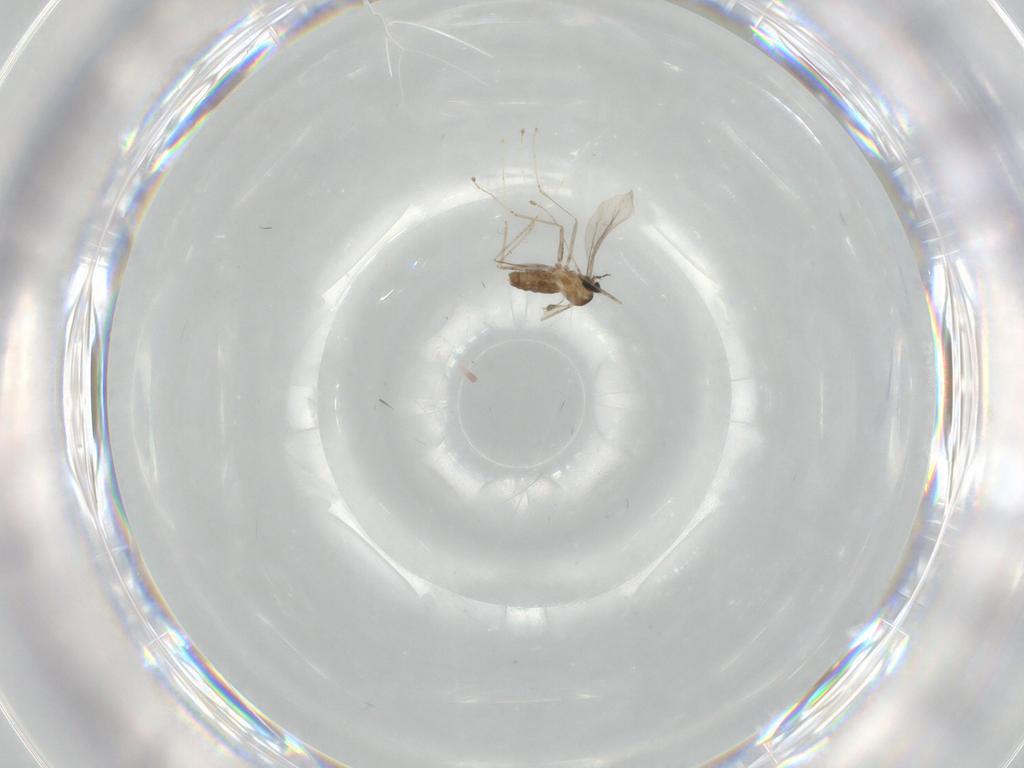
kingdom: Animalia
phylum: Arthropoda
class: Insecta
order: Diptera
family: Cecidomyiidae
